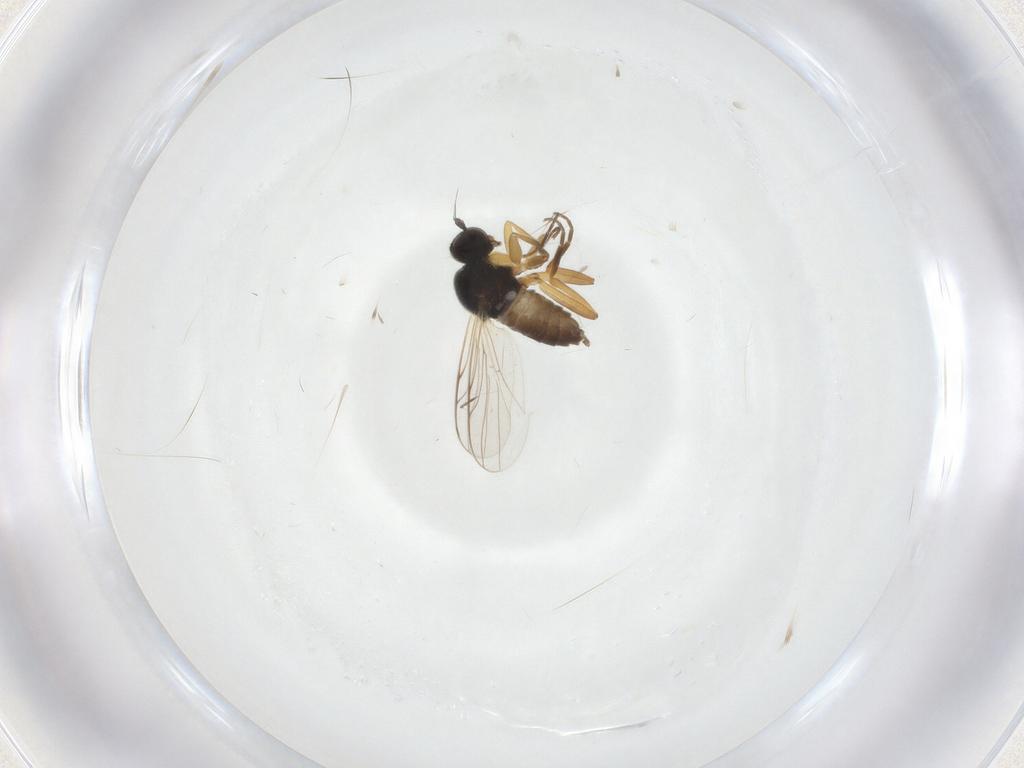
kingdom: Animalia
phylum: Arthropoda
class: Insecta
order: Diptera
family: Hybotidae
